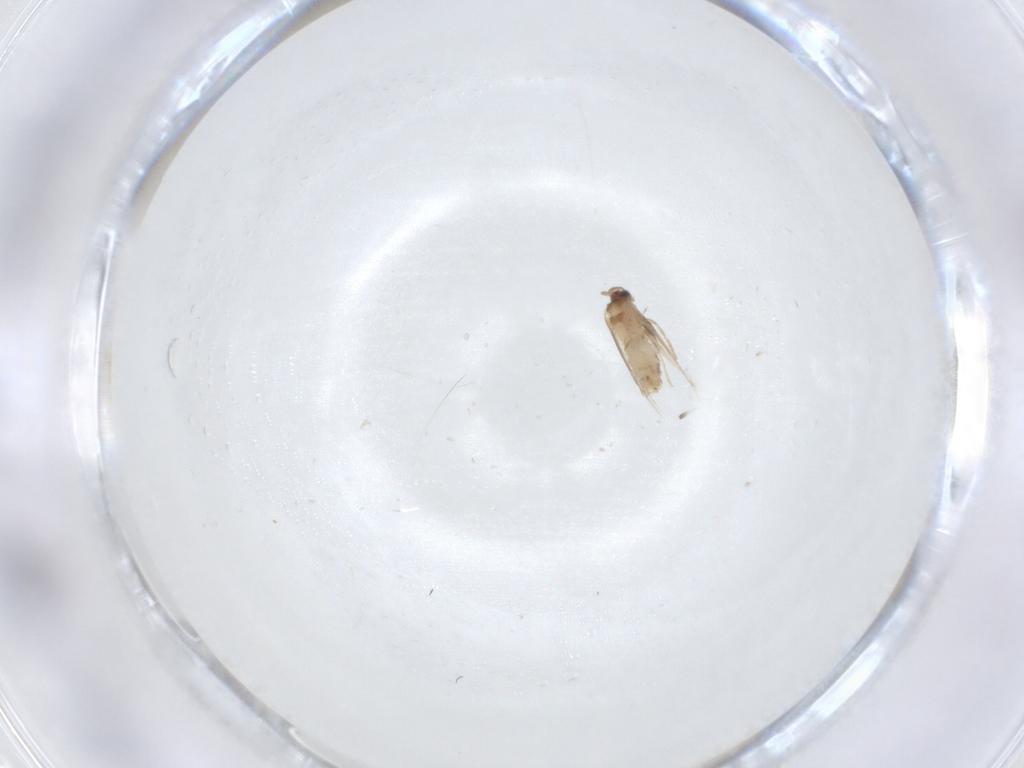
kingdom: Animalia
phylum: Arthropoda
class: Insecta
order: Lepidoptera
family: Nepticulidae
